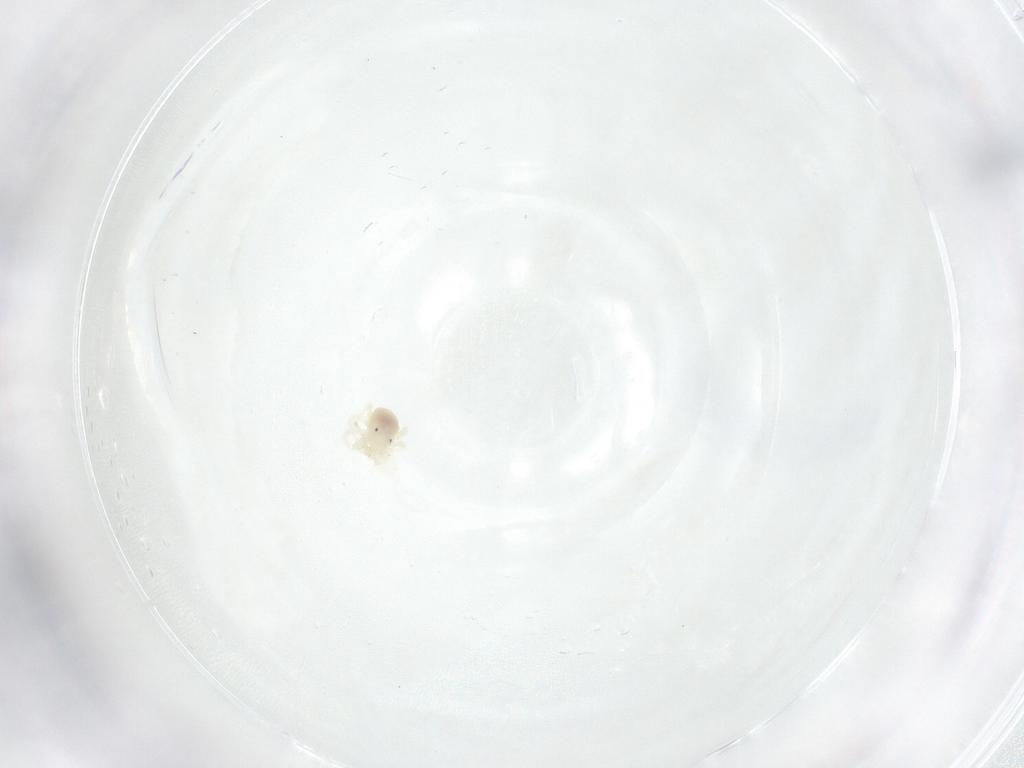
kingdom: Animalia
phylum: Arthropoda
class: Arachnida
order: Trombidiformes
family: Anystidae
